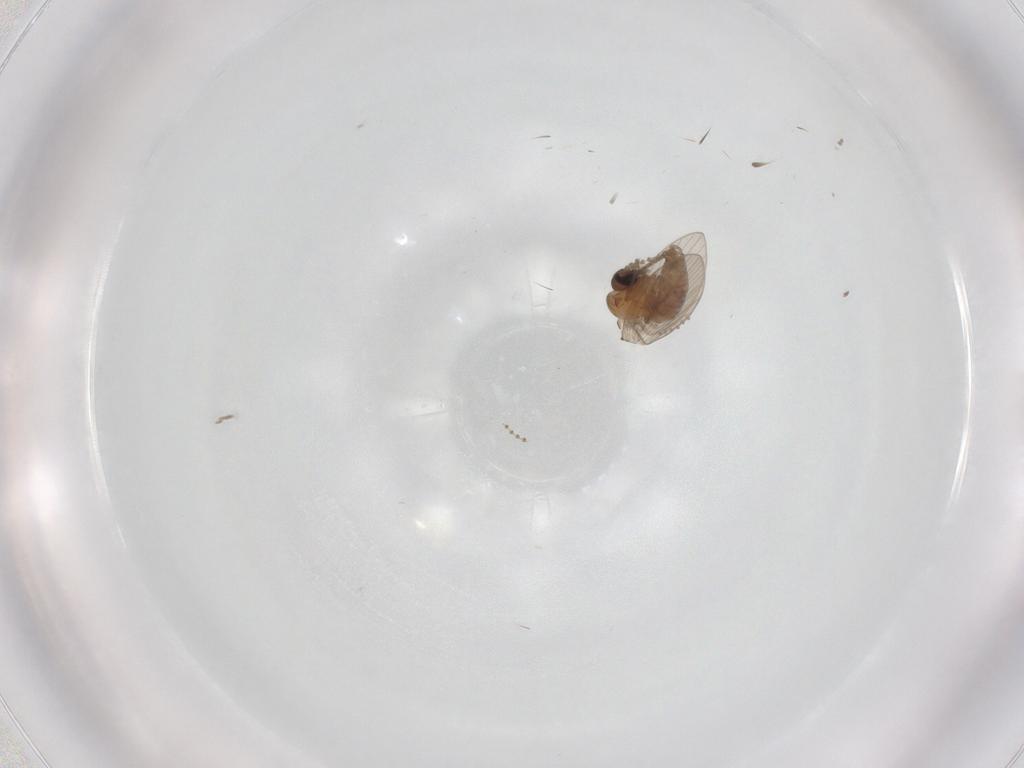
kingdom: Animalia
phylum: Arthropoda
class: Insecta
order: Diptera
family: Psychodidae
